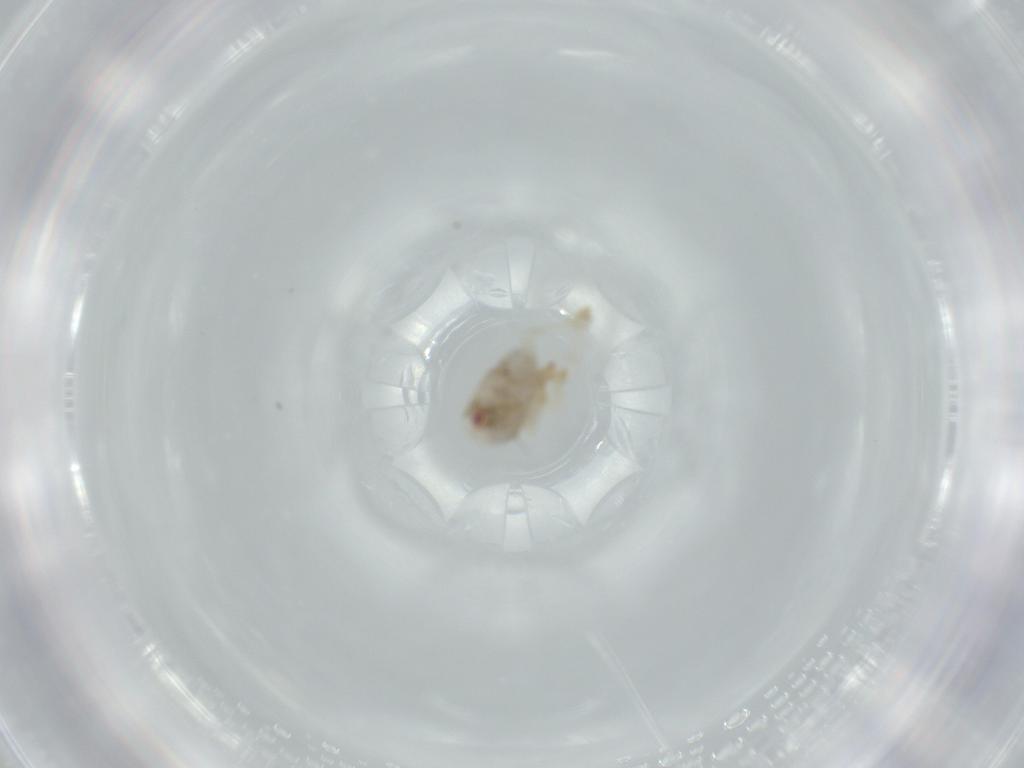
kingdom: Animalia
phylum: Arthropoda
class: Insecta
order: Hemiptera
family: Acanaloniidae
